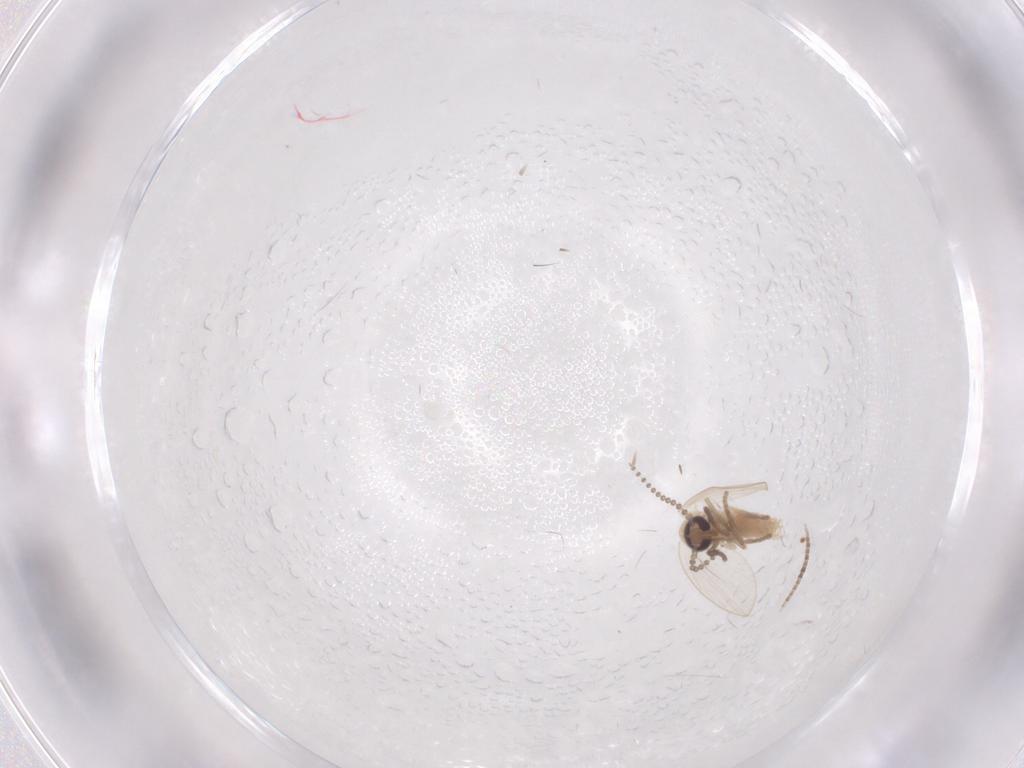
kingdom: Animalia
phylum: Arthropoda
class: Insecta
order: Diptera
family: Psychodidae
